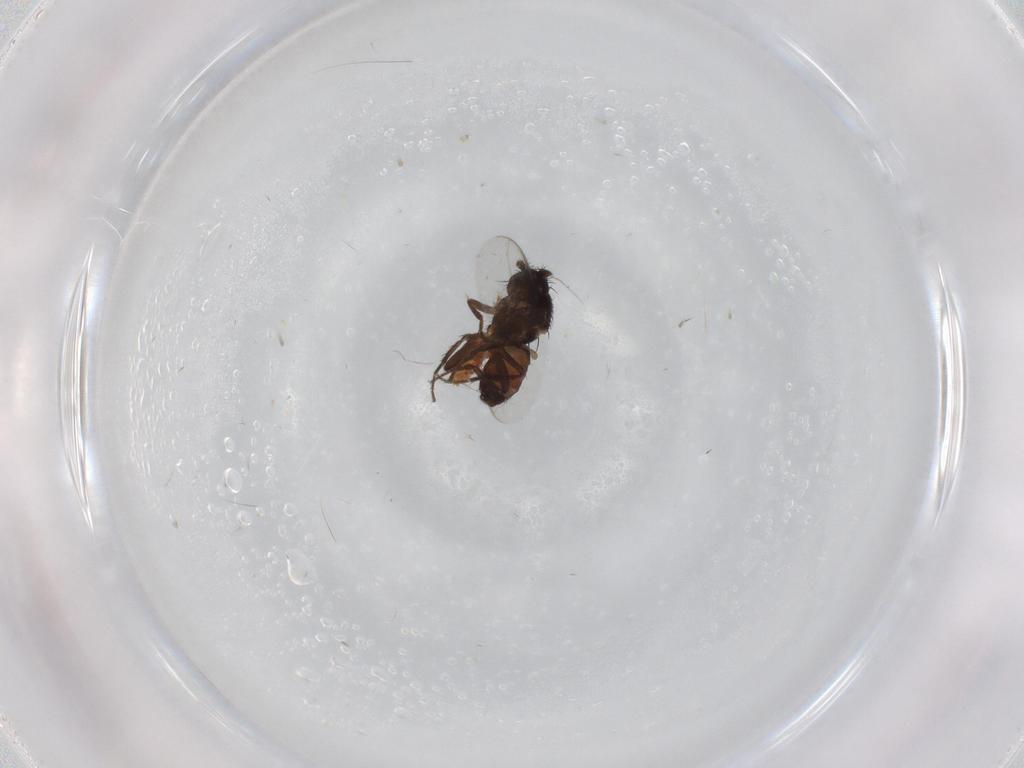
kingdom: Animalia
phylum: Arthropoda
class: Insecta
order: Diptera
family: Sphaeroceridae
